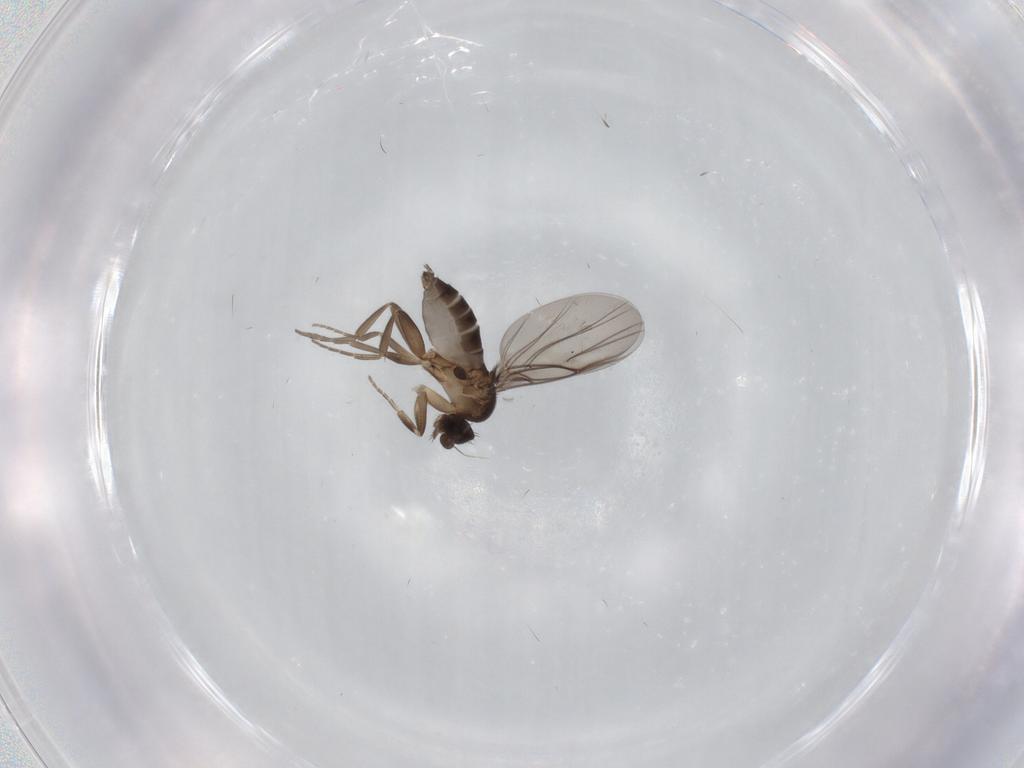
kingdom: Animalia
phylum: Arthropoda
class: Insecta
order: Diptera
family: Phoridae
